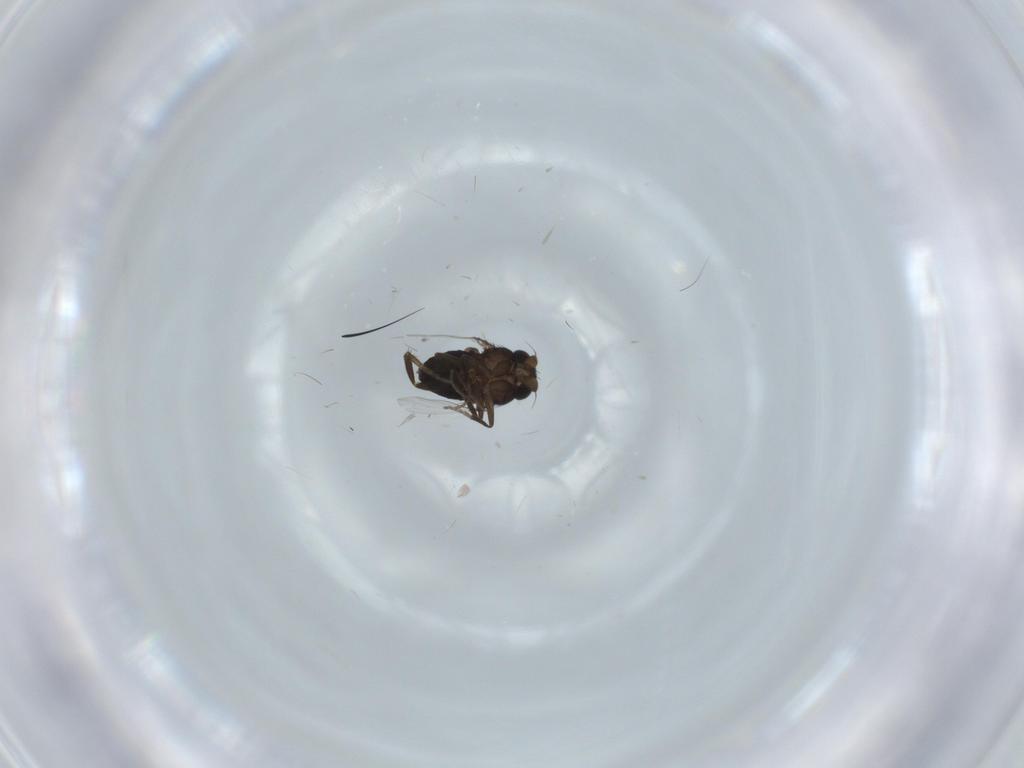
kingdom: Animalia
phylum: Arthropoda
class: Insecta
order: Diptera
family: Phoridae
